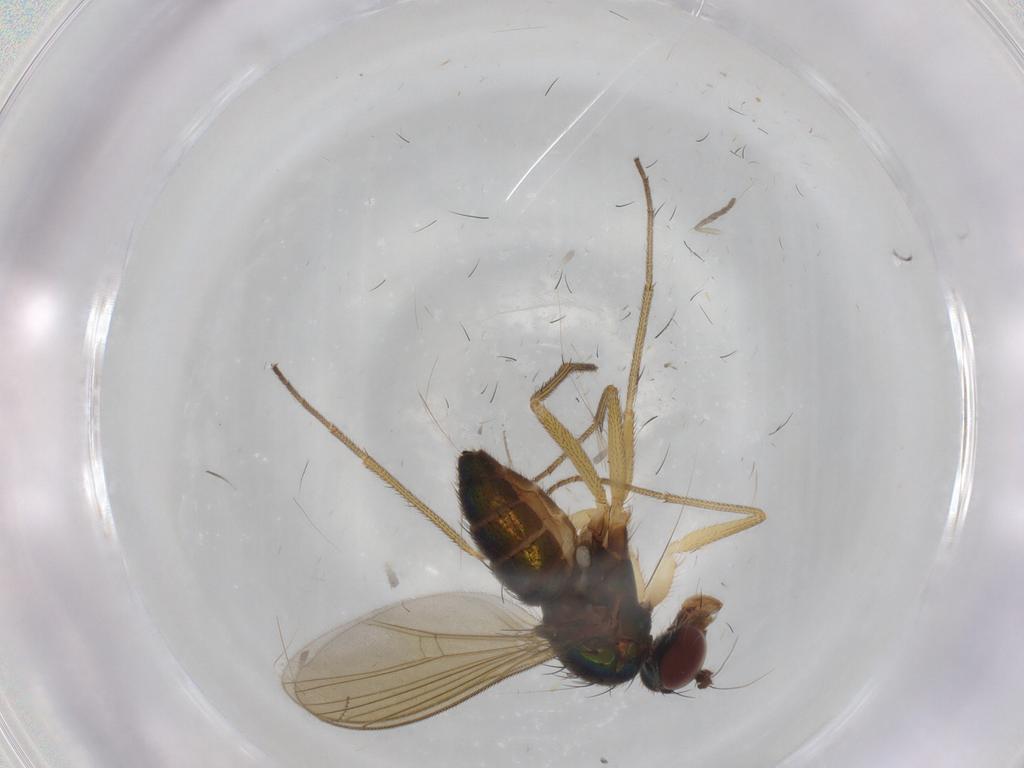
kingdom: Animalia
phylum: Arthropoda
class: Insecta
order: Diptera
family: Dolichopodidae
